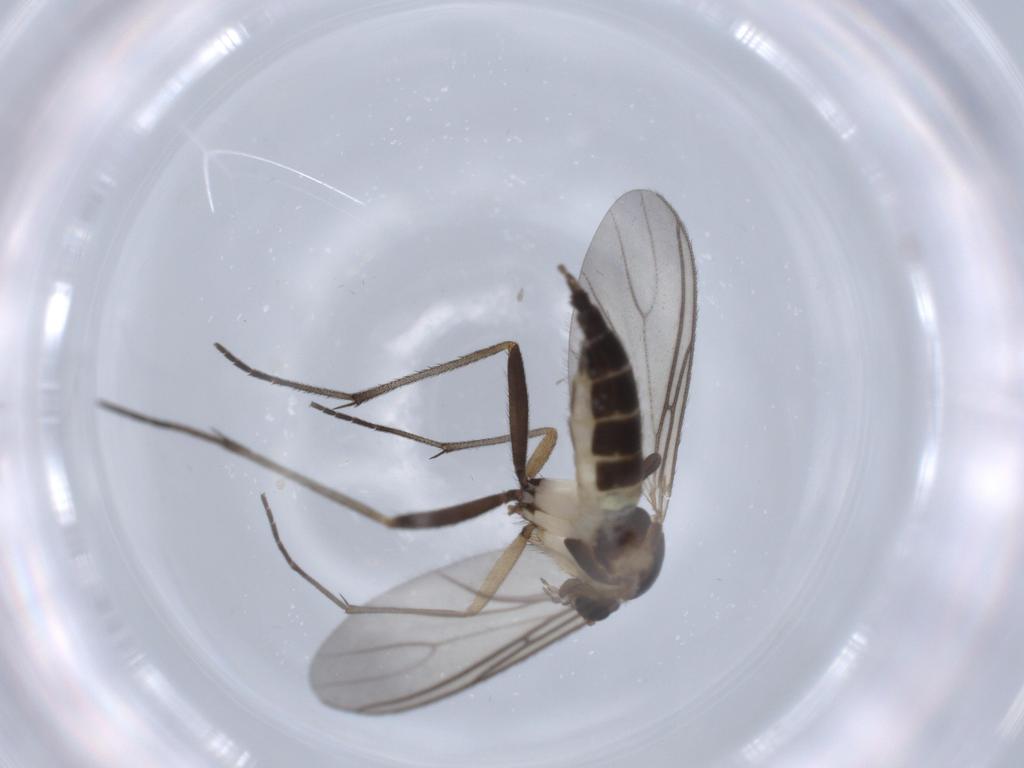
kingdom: Animalia
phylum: Arthropoda
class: Insecta
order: Diptera
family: Sciaridae
